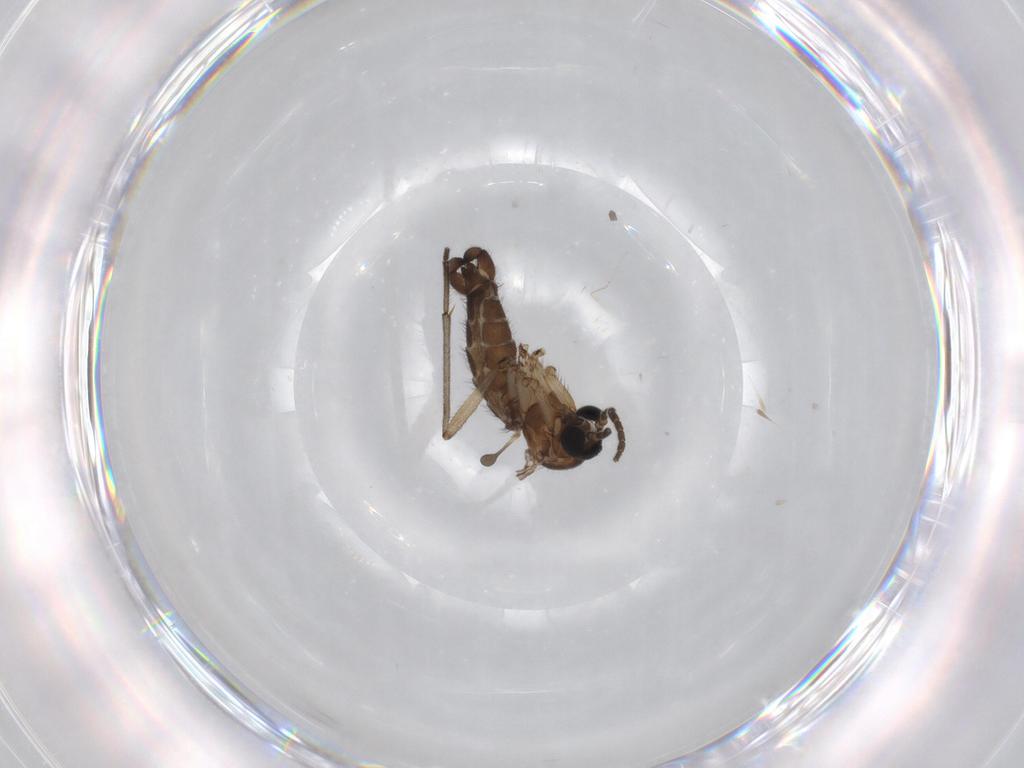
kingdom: Animalia
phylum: Arthropoda
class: Insecta
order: Diptera
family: Sciaridae
